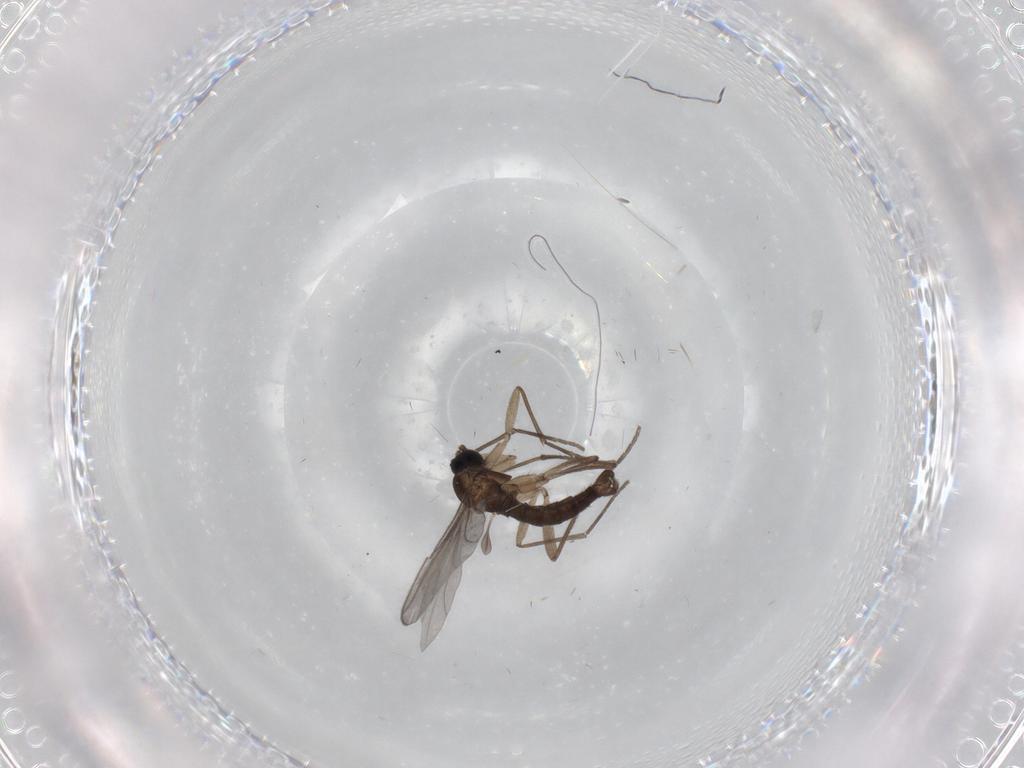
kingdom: Animalia
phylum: Arthropoda
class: Insecta
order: Diptera
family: Sciaridae
